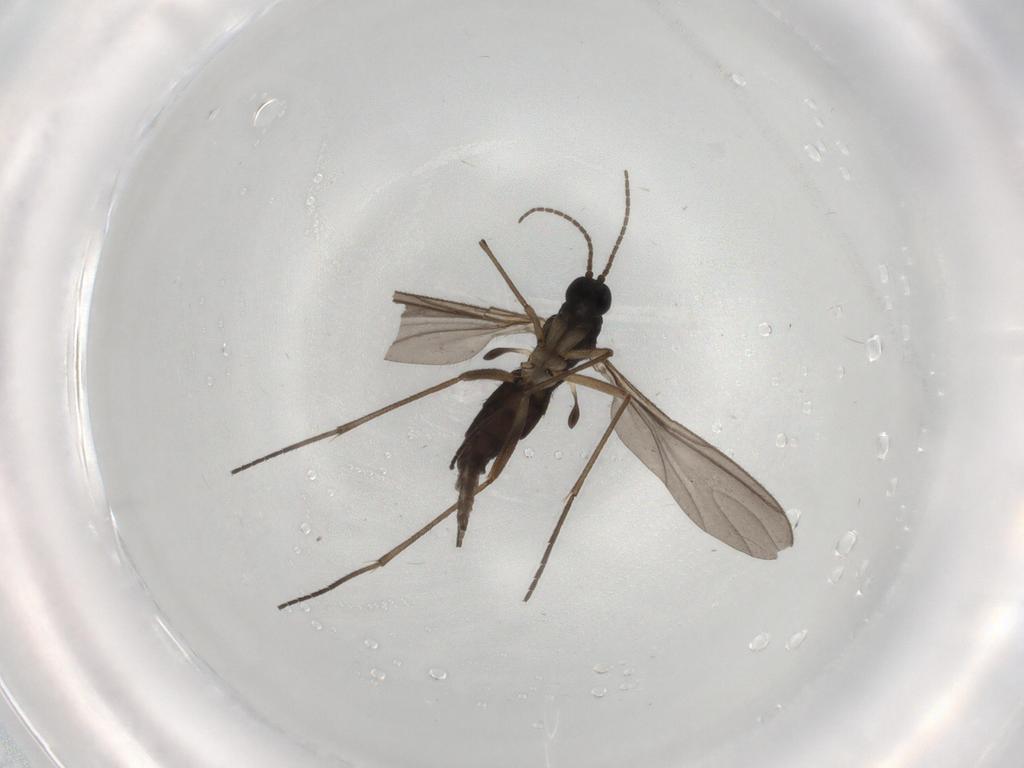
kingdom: Animalia
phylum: Arthropoda
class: Insecta
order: Diptera
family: Sciaridae
